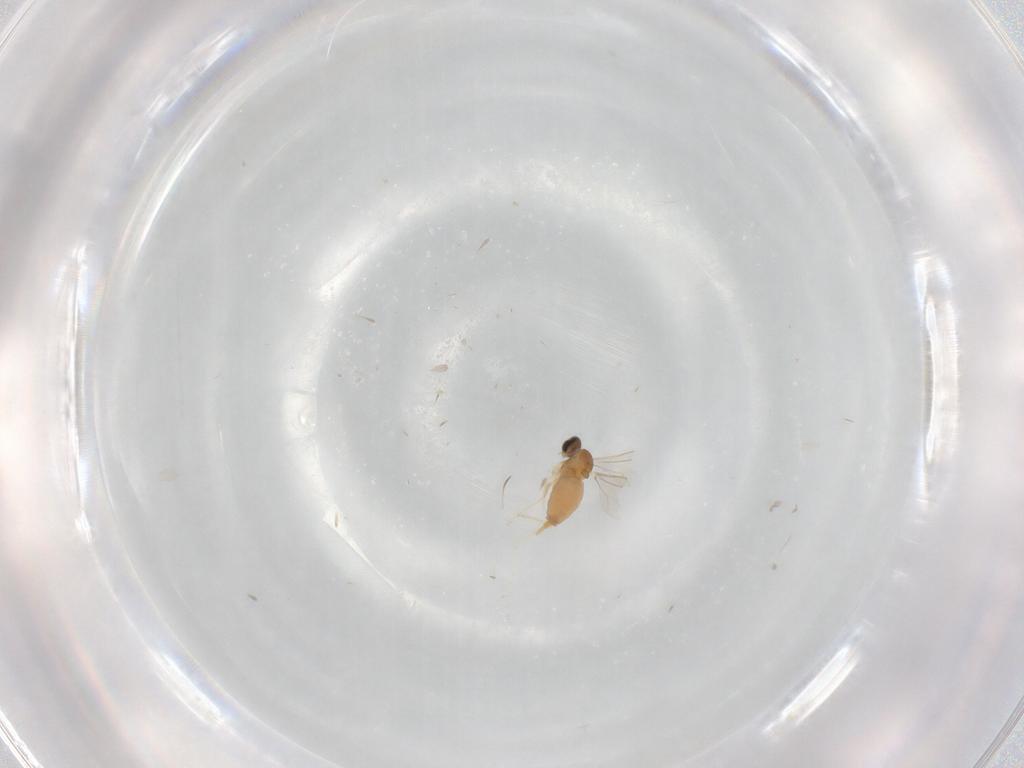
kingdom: Animalia
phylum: Arthropoda
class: Insecta
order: Diptera
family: Cecidomyiidae
